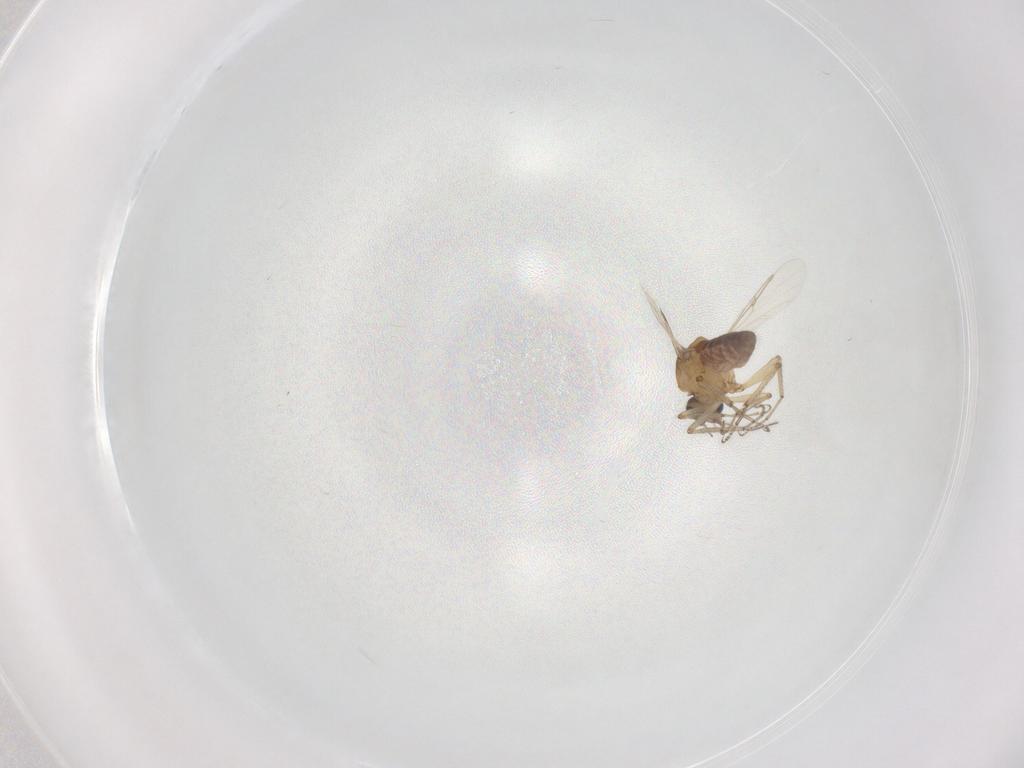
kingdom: Animalia
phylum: Arthropoda
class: Insecta
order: Diptera
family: Ceratopogonidae
